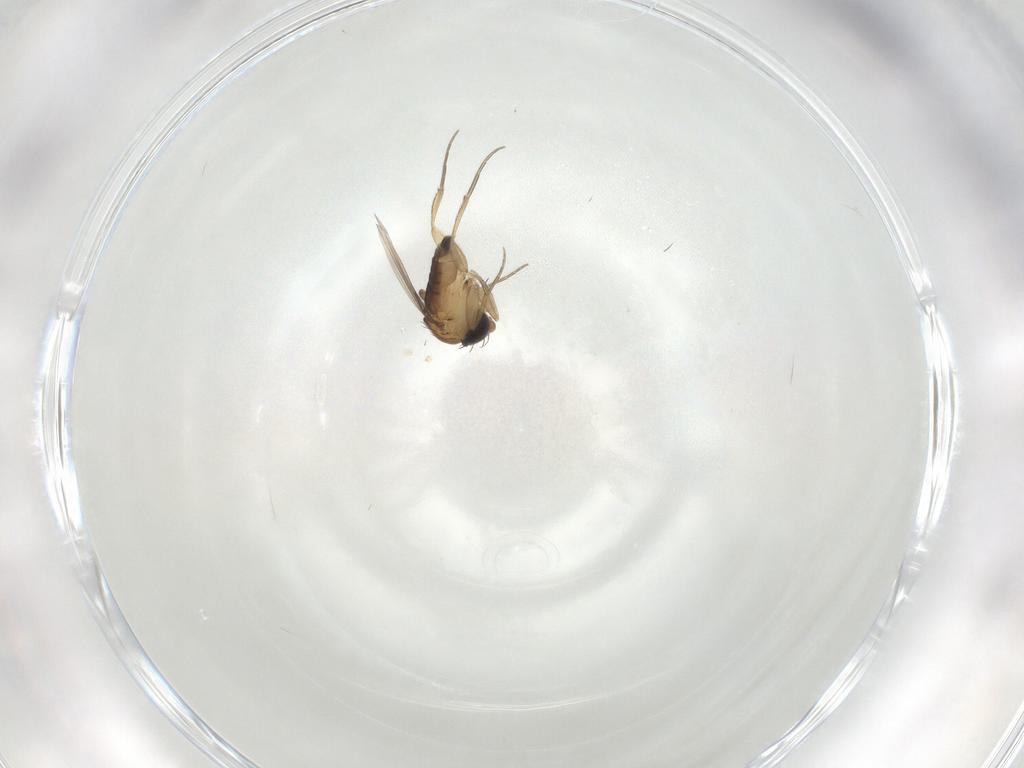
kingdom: Animalia
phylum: Arthropoda
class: Insecta
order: Diptera
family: Phoridae
